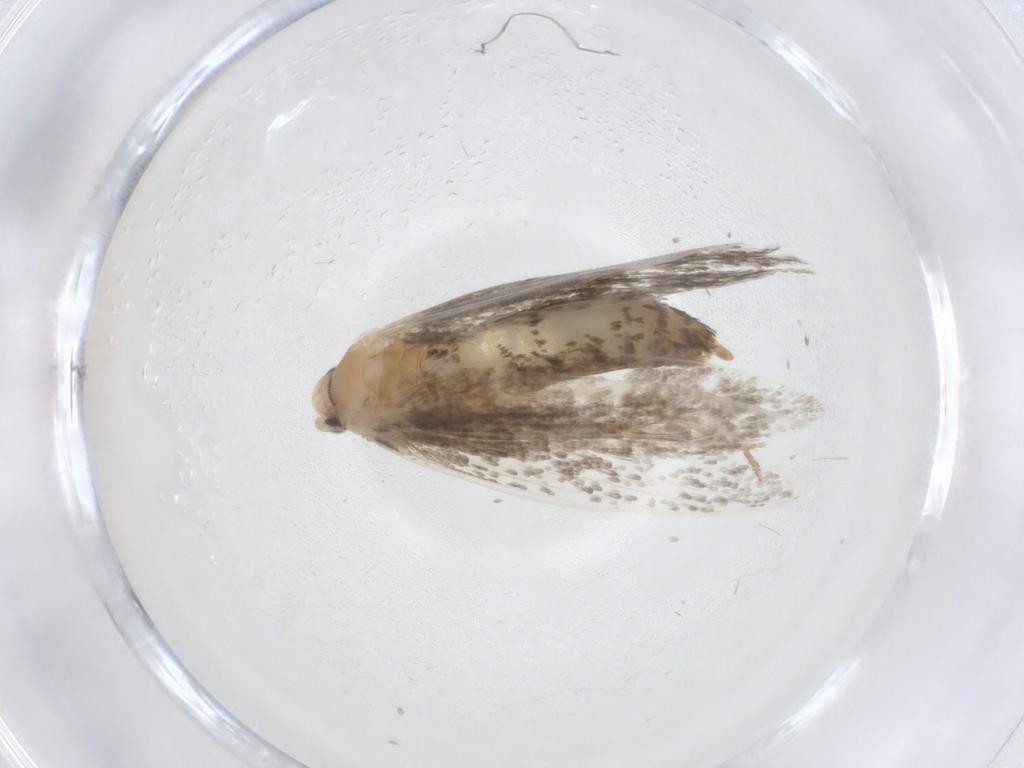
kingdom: Animalia
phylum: Arthropoda
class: Insecta
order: Lepidoptera
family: Tineidae
